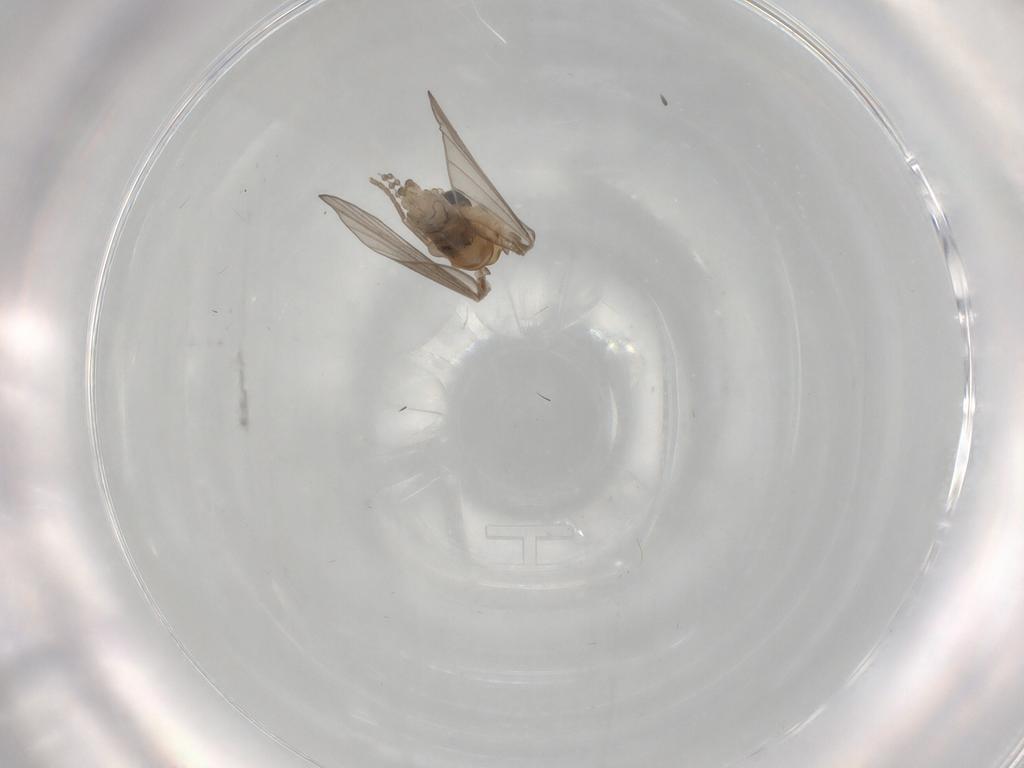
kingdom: Animalia
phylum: Arthropoda
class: Insecta
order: Diptera
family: Psychodidae
